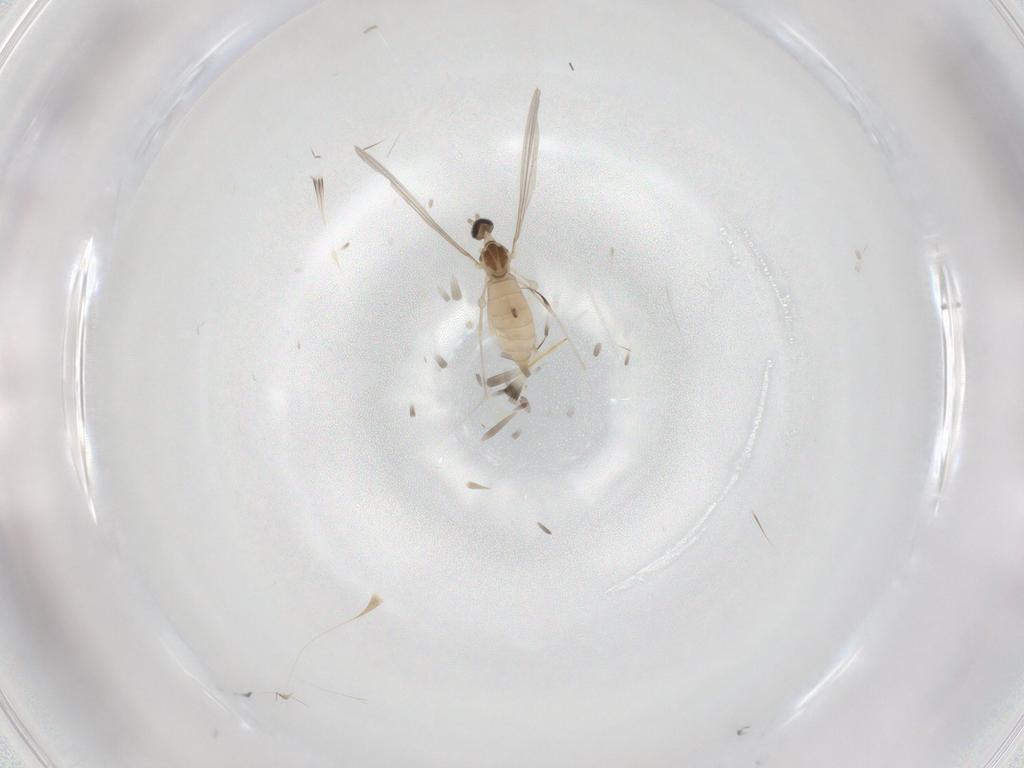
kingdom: Animalia
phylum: Arthropoda
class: Insecta
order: Diptera
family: Cecidomyiidae
